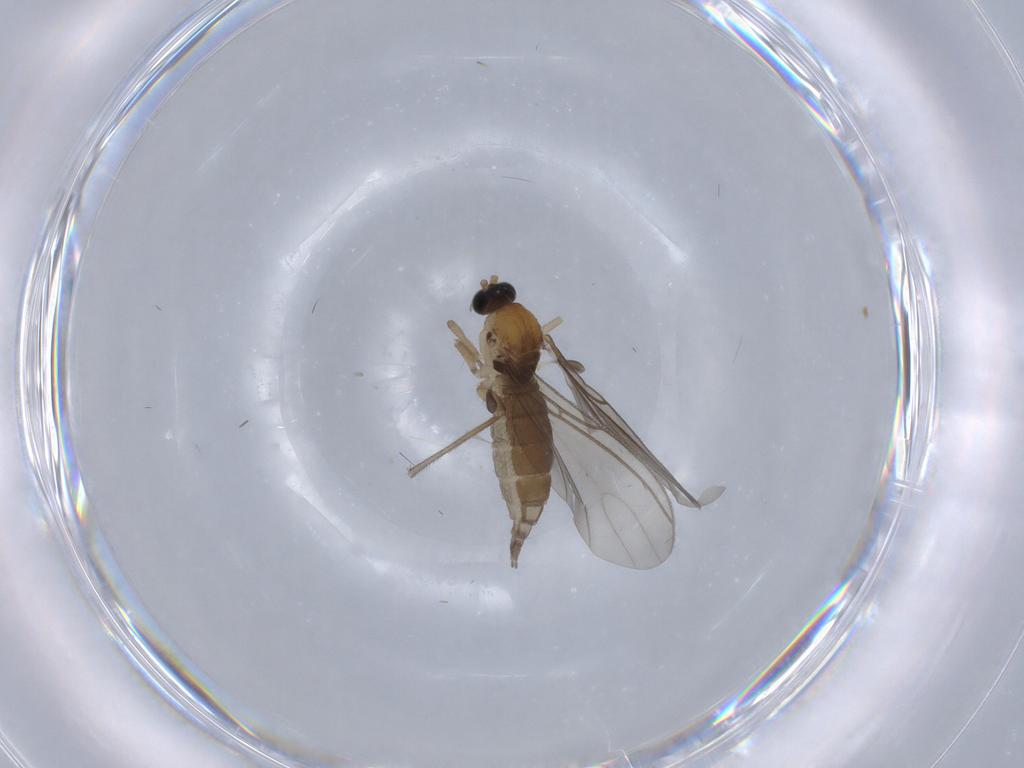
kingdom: Animalia
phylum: Arthropoda
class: Insecta
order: Diptera
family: Sciaridae
